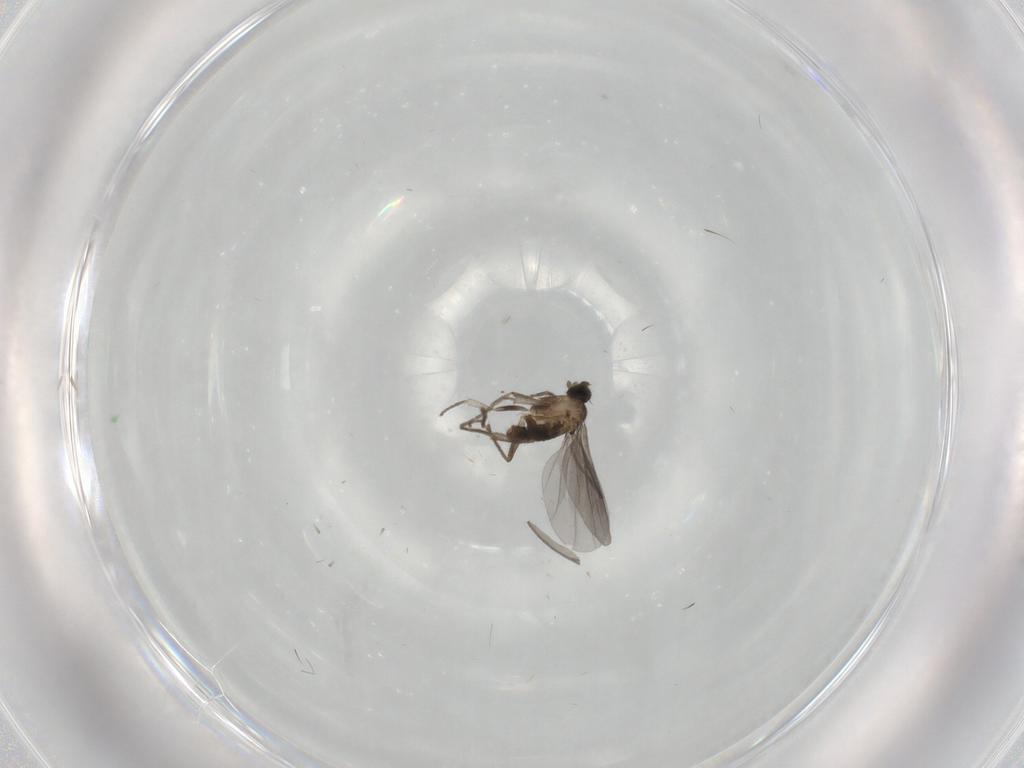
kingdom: Animalia
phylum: Arthropoda
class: Insecta
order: Diptera
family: Phoridae
